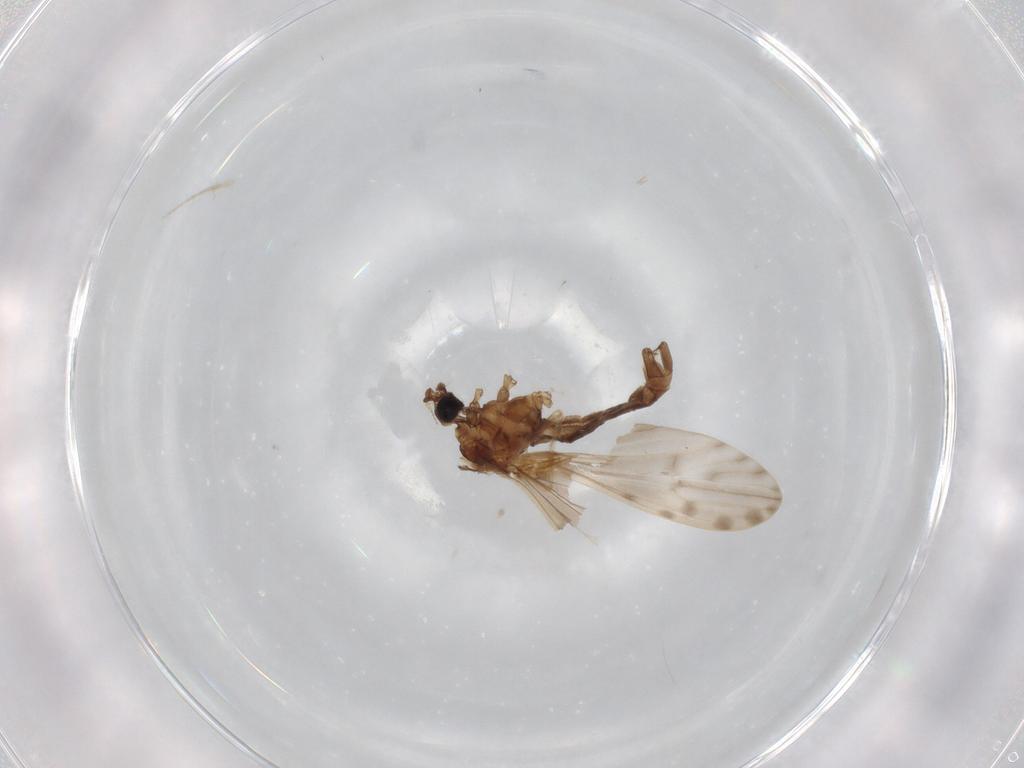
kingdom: Animalia
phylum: Arthropoda
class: Insecta
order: Diptera
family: Limoniidae
